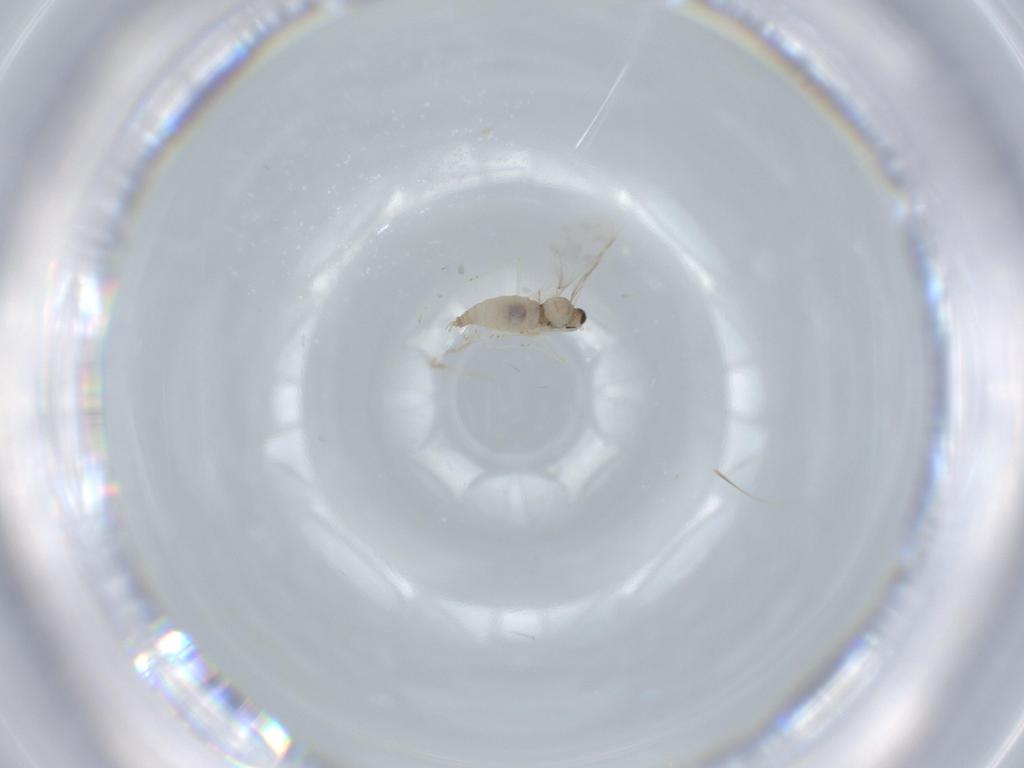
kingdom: Animalia
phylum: Arthropoda
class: Insecta
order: Diptera
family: Cecidomyiidae
